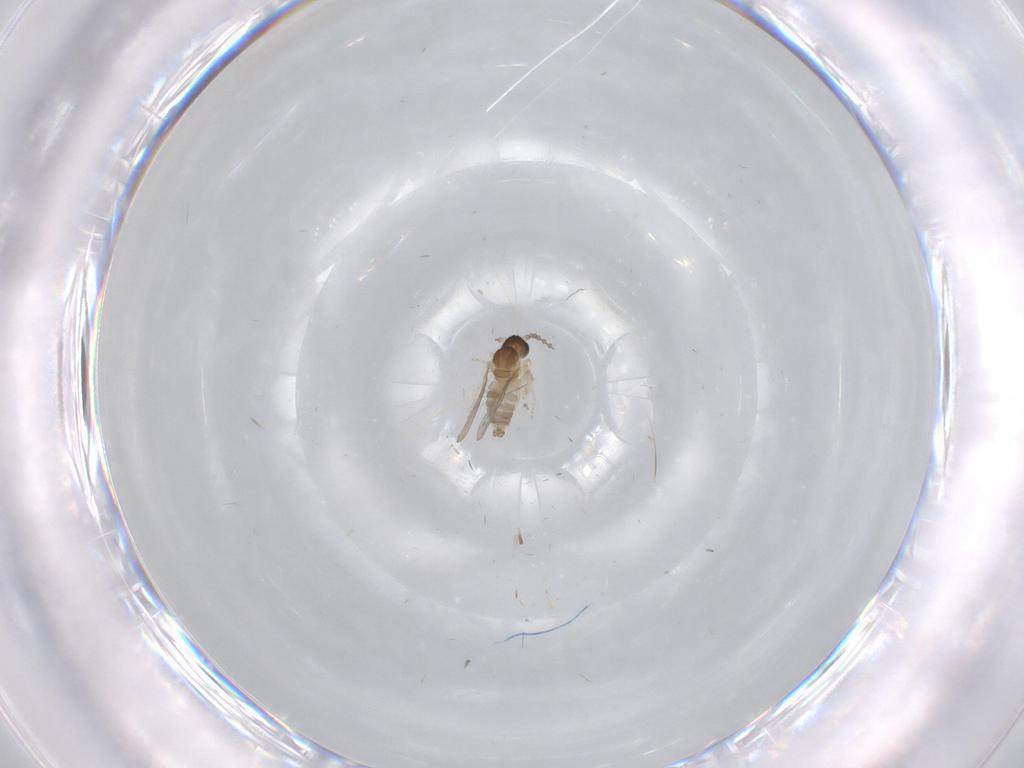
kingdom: Animalia
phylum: Arthropoda
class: Insecta
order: Diptera
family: Cecidomyiidae
